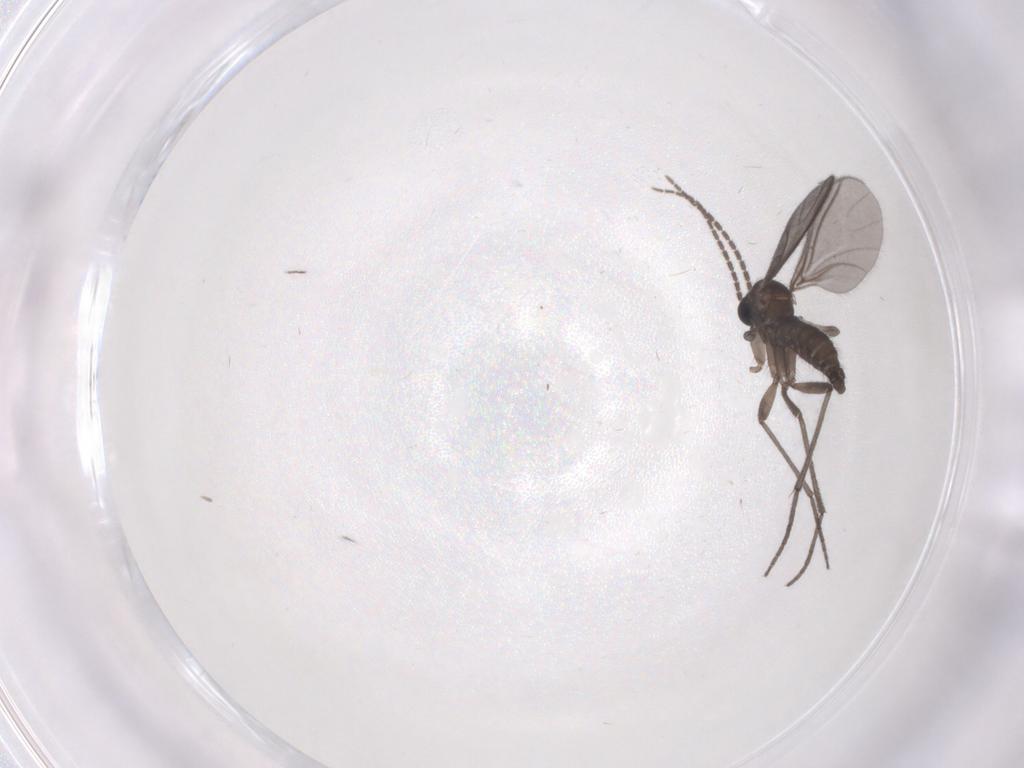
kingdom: Animalia
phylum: Arthropoda
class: Insecta
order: Diptera
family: Sciaridae
